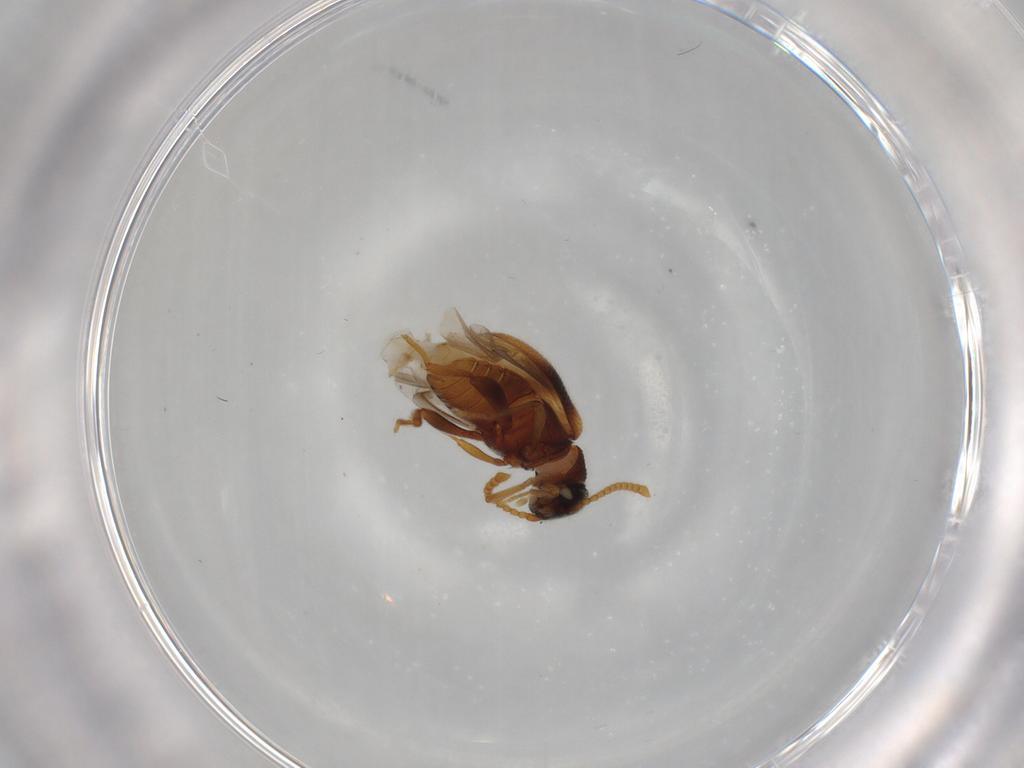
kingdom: Animalia
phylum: Arthropoda
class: Insecta
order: Coleoptera
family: Aderidae
